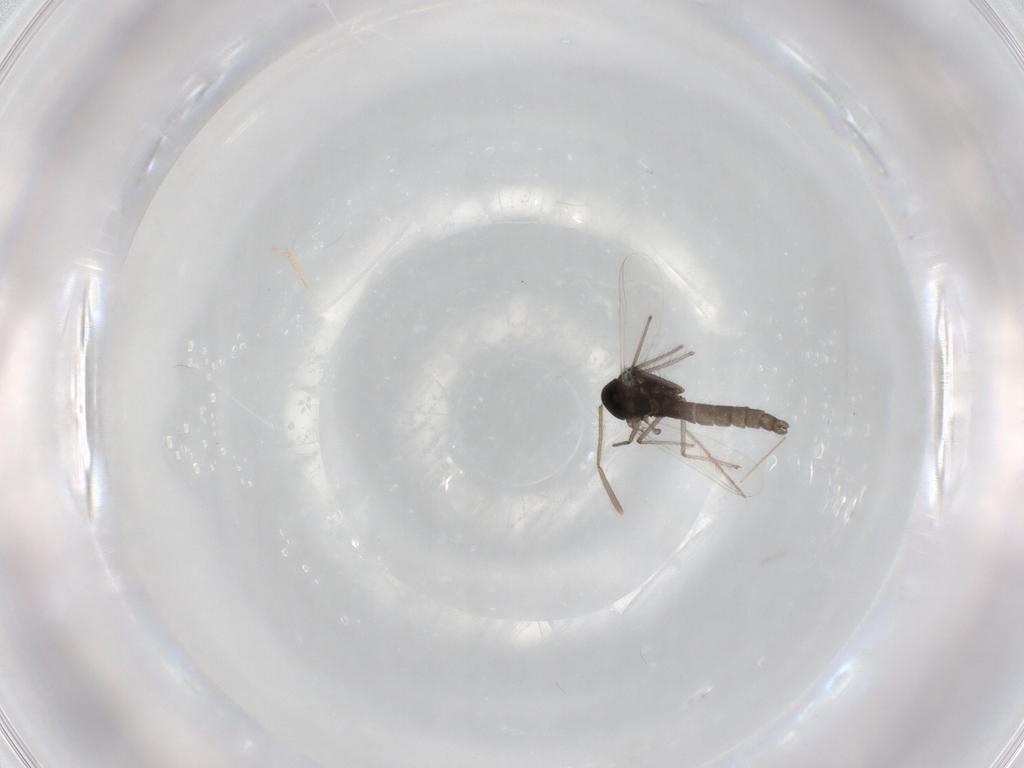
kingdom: Animalia
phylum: Arthropoda
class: Insecta
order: Diptera
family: Chironomidae
